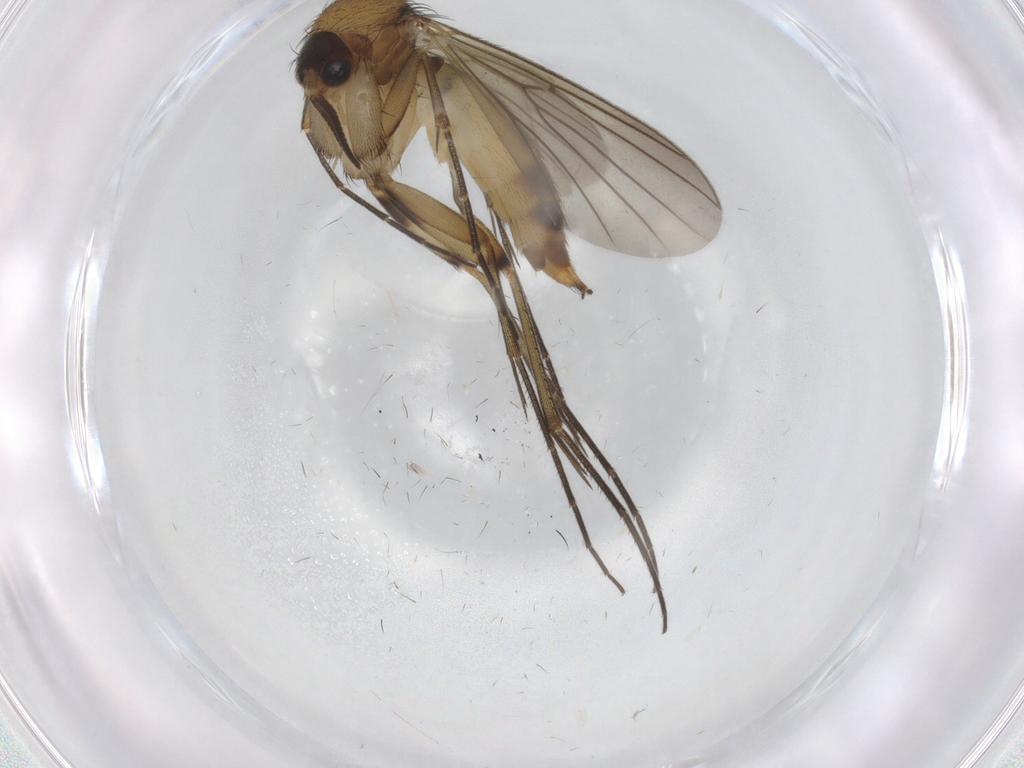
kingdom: Animalia
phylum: Arthropoda
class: Insecta
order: Diptera
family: Mycetophilidae
